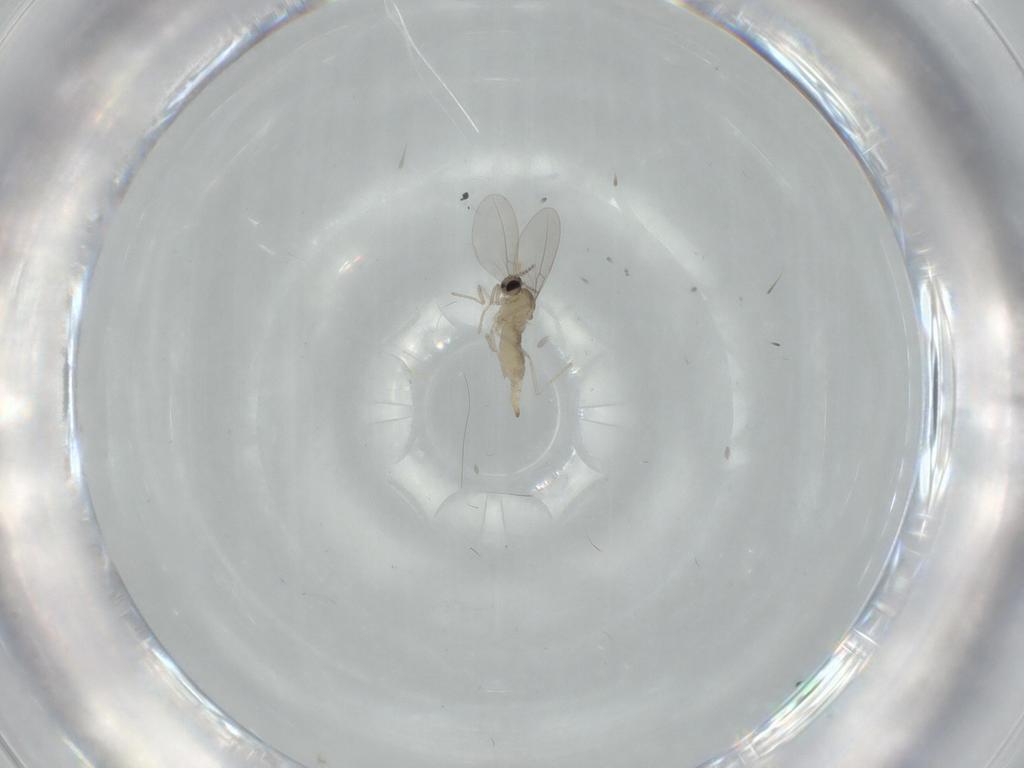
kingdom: Animalia
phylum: Arthropoda
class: Insecta
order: Diptera
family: Cecidomyiidae
